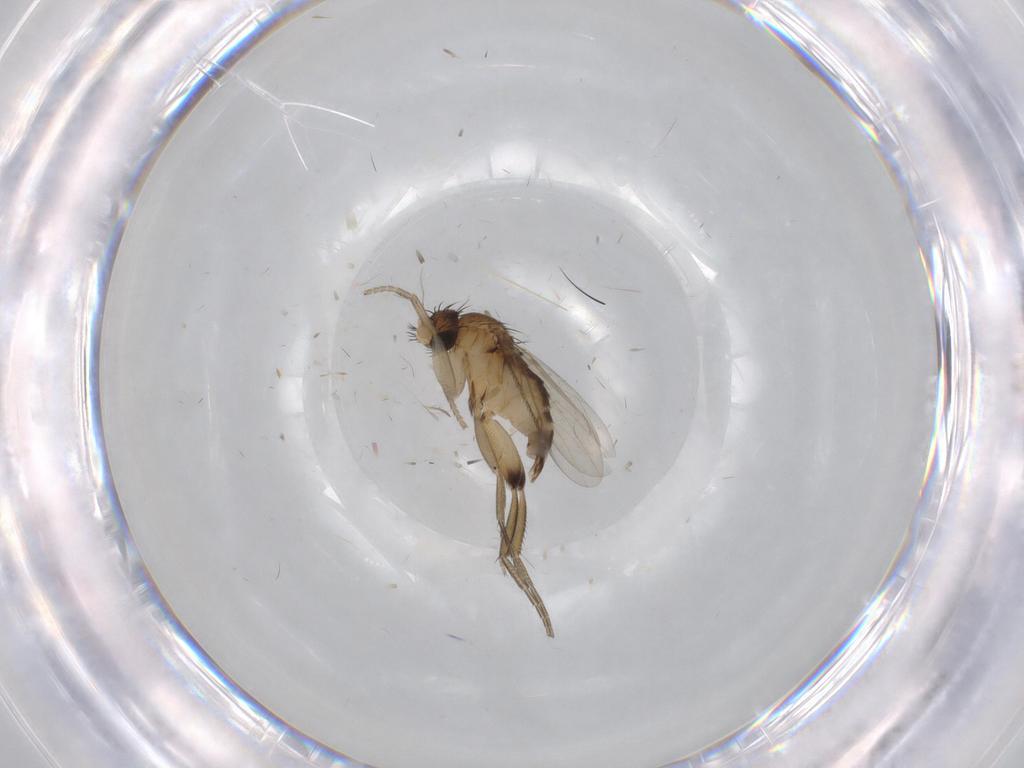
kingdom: Animalia
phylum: Arthropoda
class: Insecta
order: Diptera
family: Phoridae
